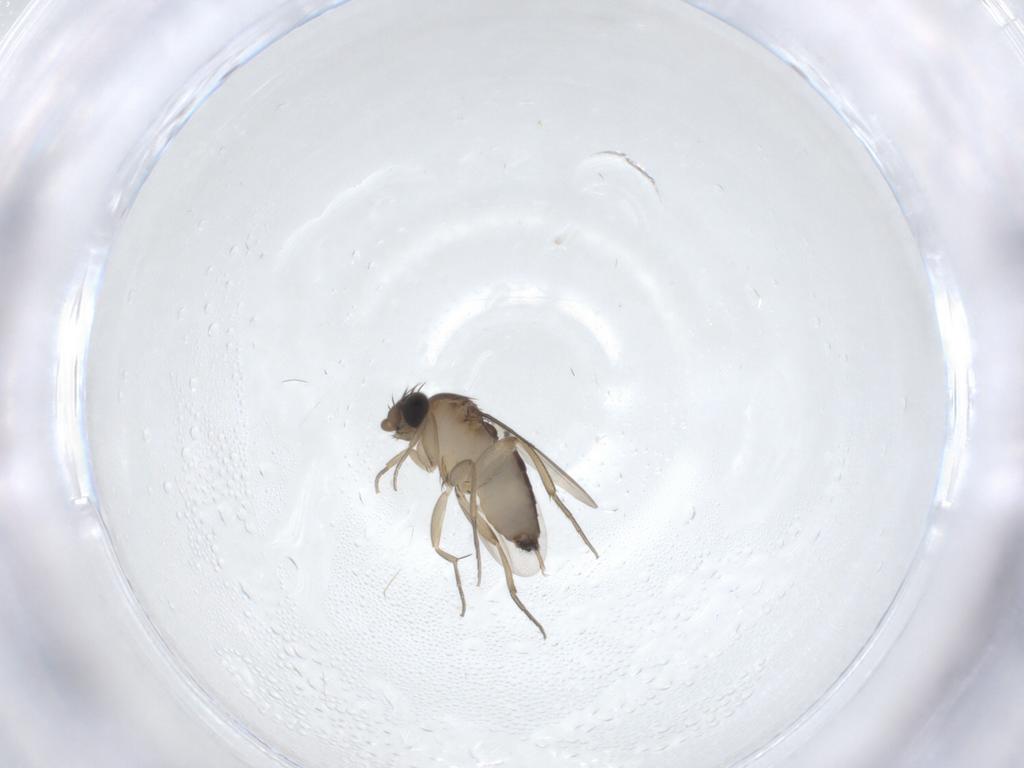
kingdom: Animalia
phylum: Arthropoda
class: Insecta
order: Diptera
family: Phoridae
